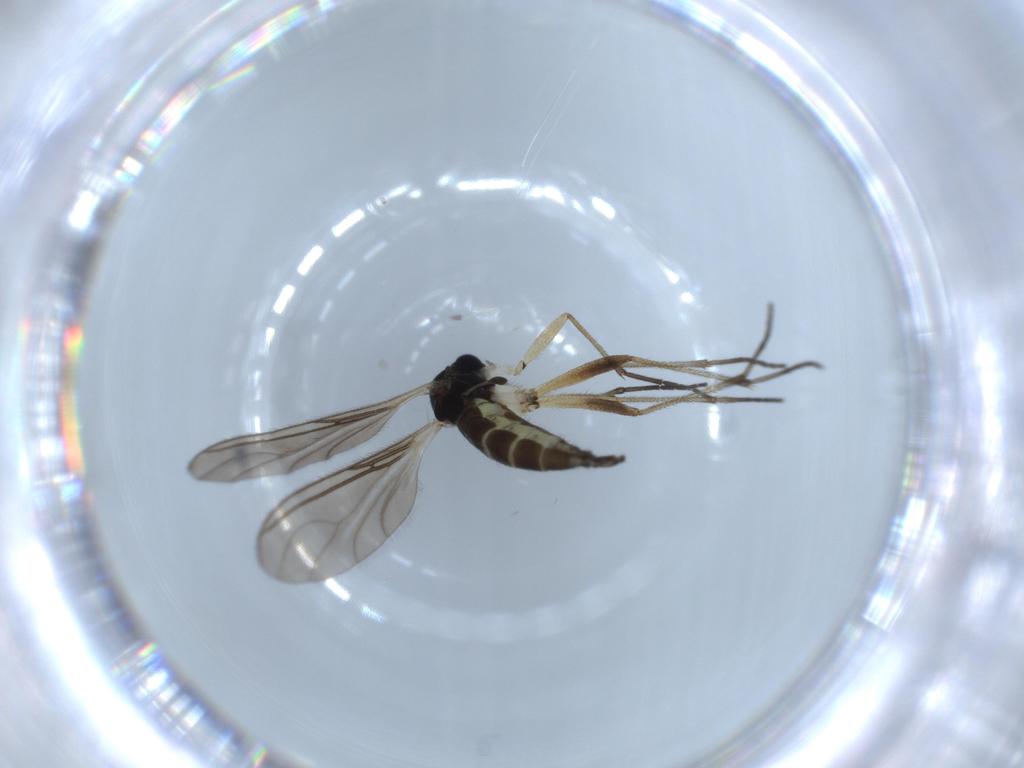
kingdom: Animalia
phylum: Arthropoda
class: Insecta
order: Diptera
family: Sciaridae
